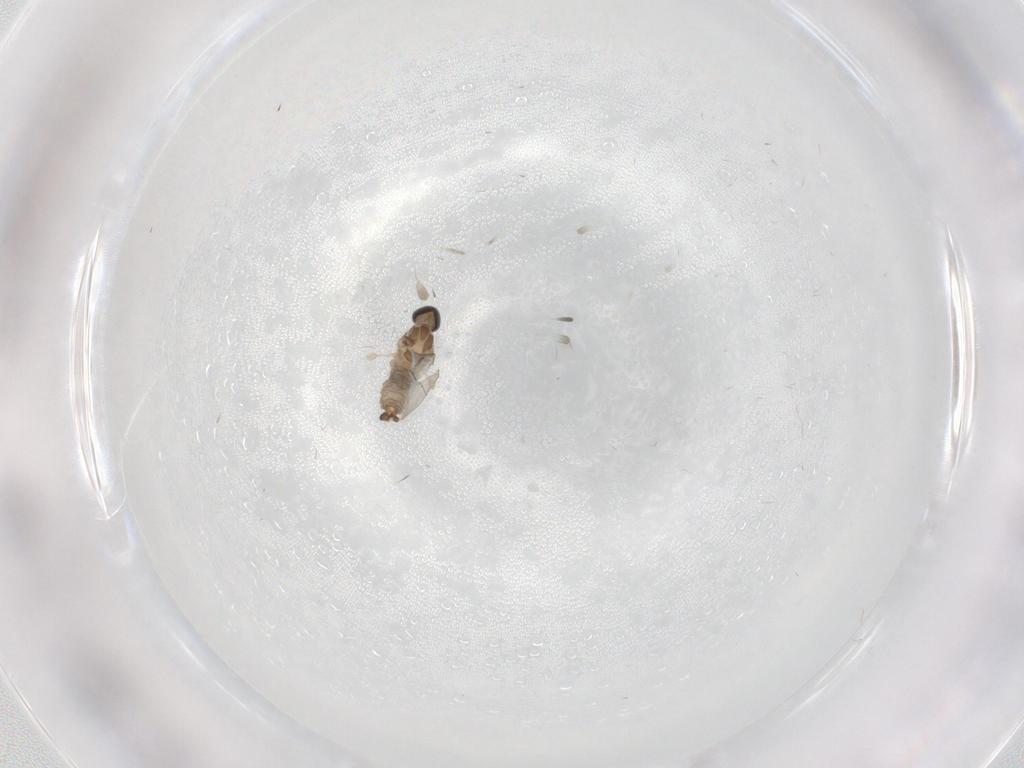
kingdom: Animalia
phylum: Arthropoda
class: Insecta
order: Diptera
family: Cecidomyiidae
